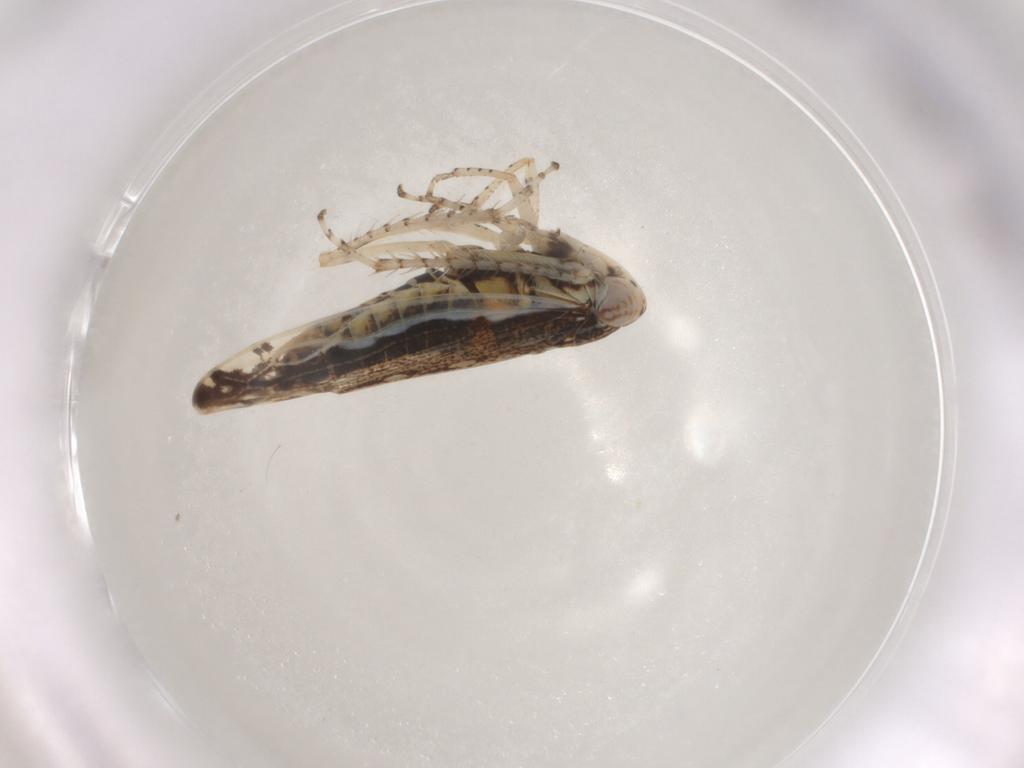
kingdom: Animalia
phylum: Arthropoda
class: Insecta
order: Hemiptera
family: Cicadellidae
